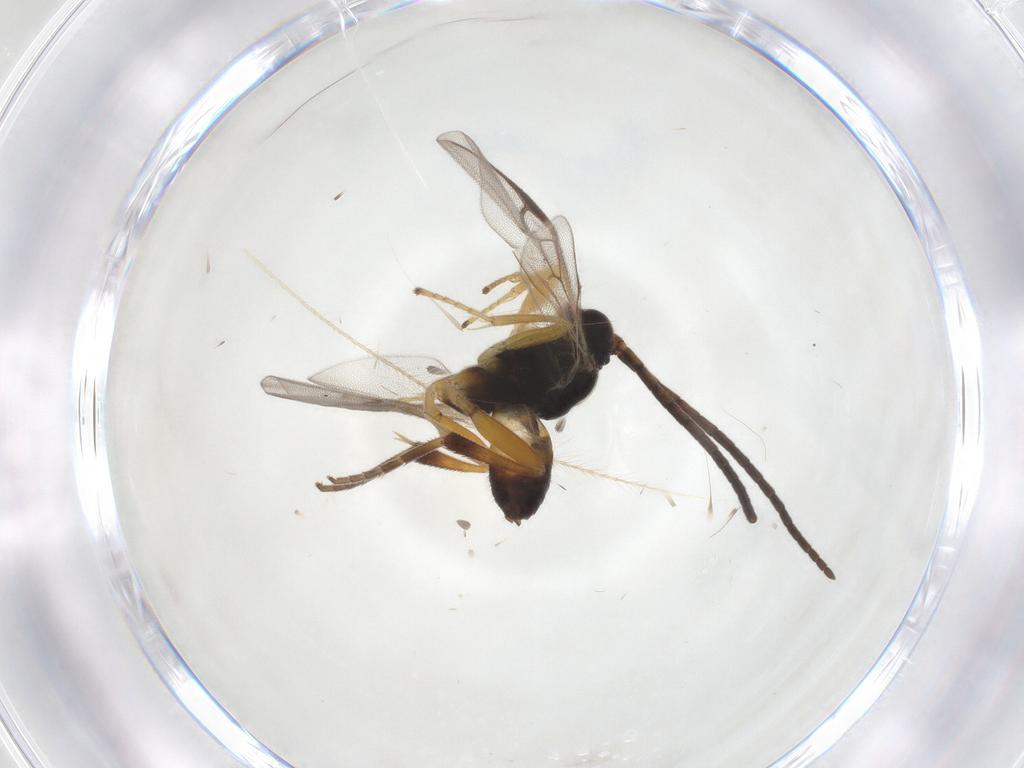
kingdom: Animalia
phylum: Arthropoda
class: Insecta
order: Hymenoptera
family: Braconidae
